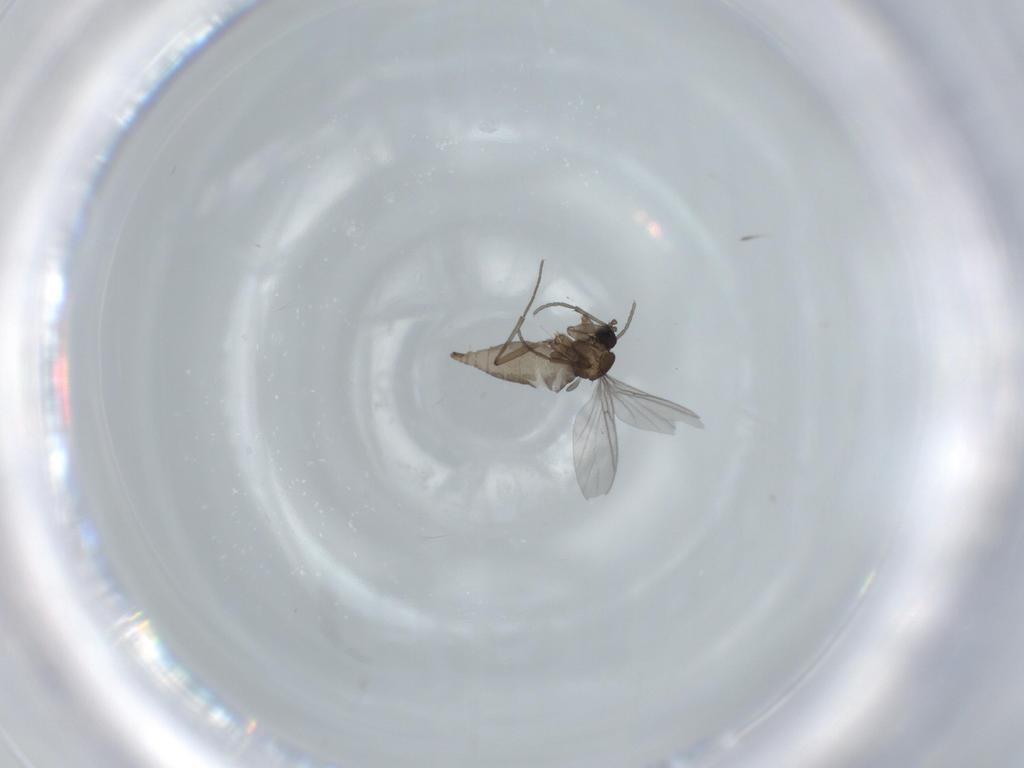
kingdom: Animalia
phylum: Arthropoda
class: Insecta
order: Diptera
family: Sciaridae
